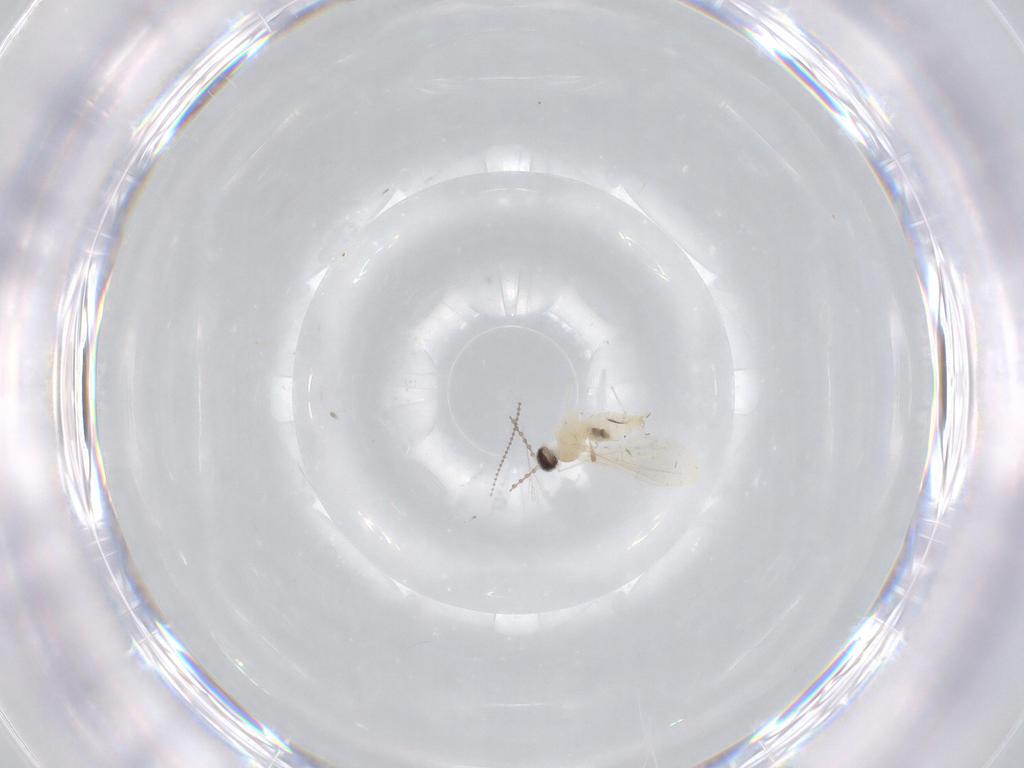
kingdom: Animalia
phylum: Arthropoda
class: Insecta
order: Diptera
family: Cecidomyiidae
